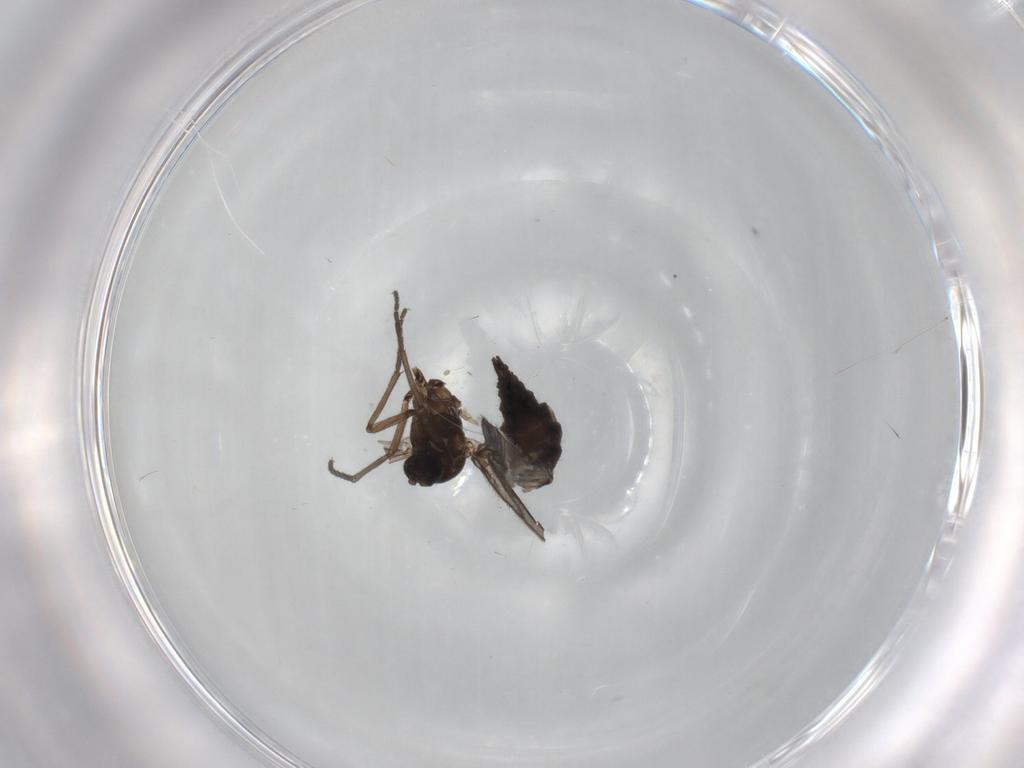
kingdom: Animalia
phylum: Arthropoda
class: Insecta
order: Diptera
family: Sciaridae
